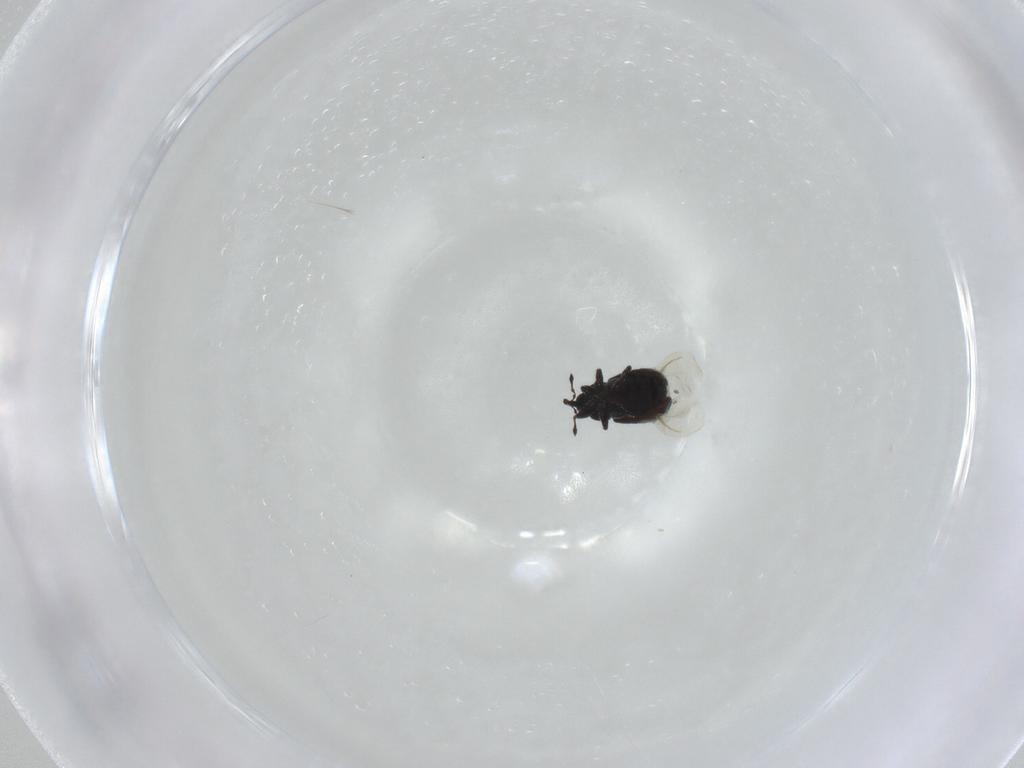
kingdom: Animalia
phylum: Arthropoda
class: Insecta
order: Coleoptera
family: Curculionidae
